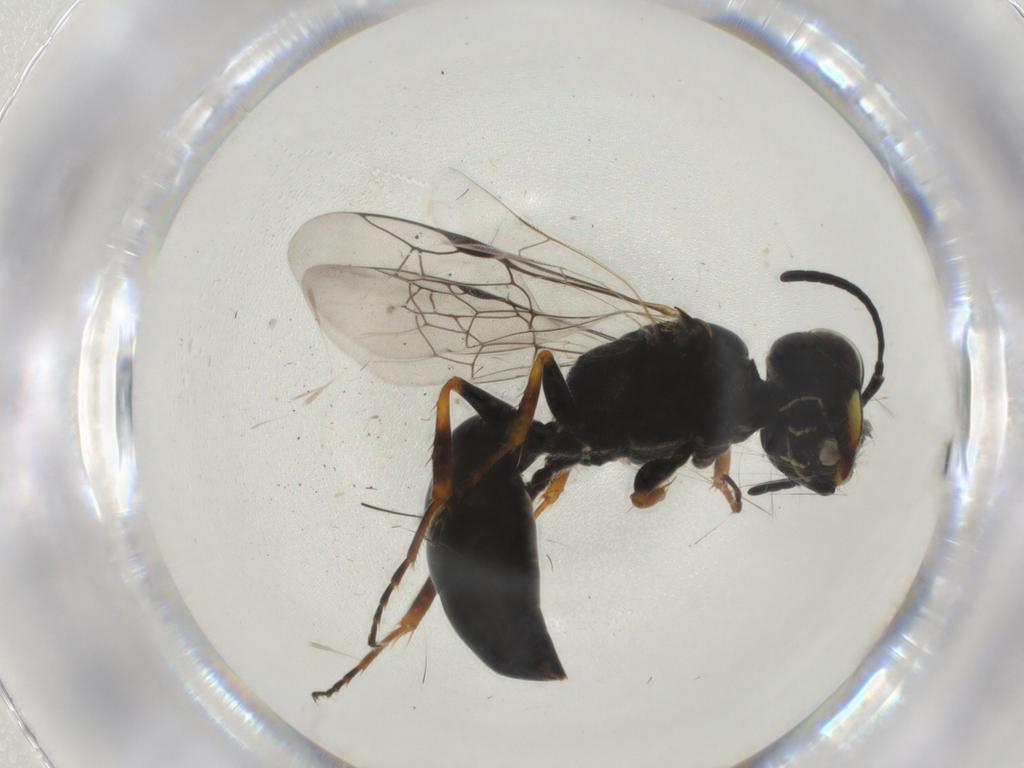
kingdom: Animalia
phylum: Arthropoda
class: Insecta
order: Hymenoptera
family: Pemphredonidae
